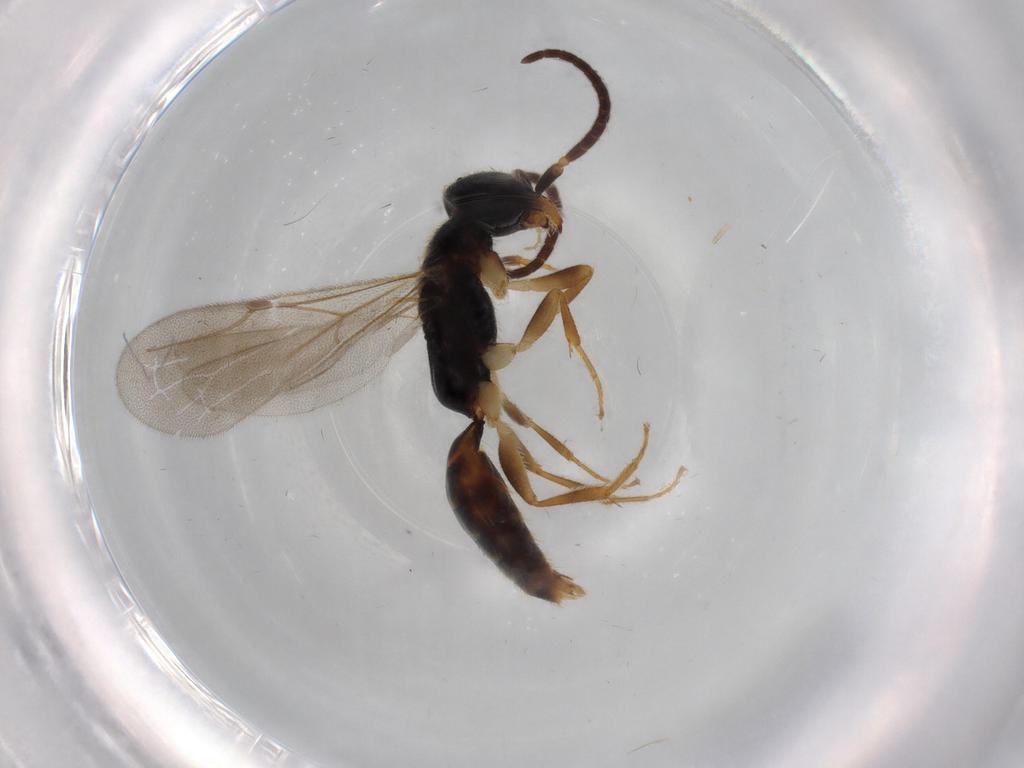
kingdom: Animalia
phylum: Arthropoda
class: Insecta
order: Hymenoptera
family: Bethylidae
